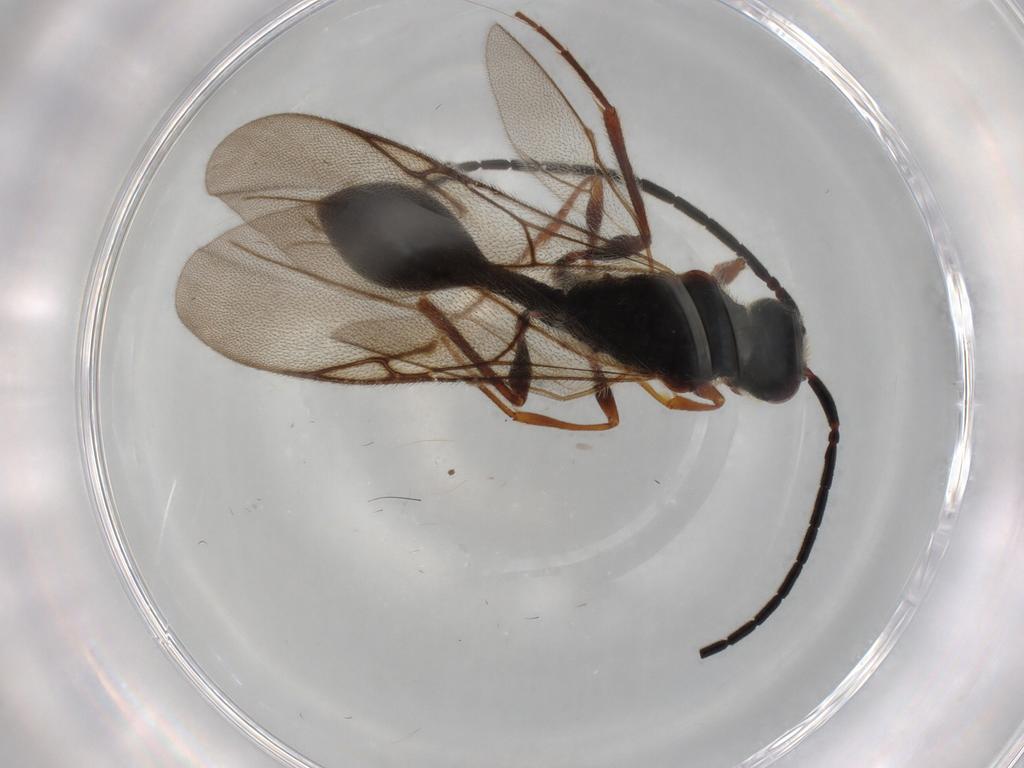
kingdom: Animalia
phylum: Arthropoda
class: Insecta
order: Hymenoptera
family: Apidae
